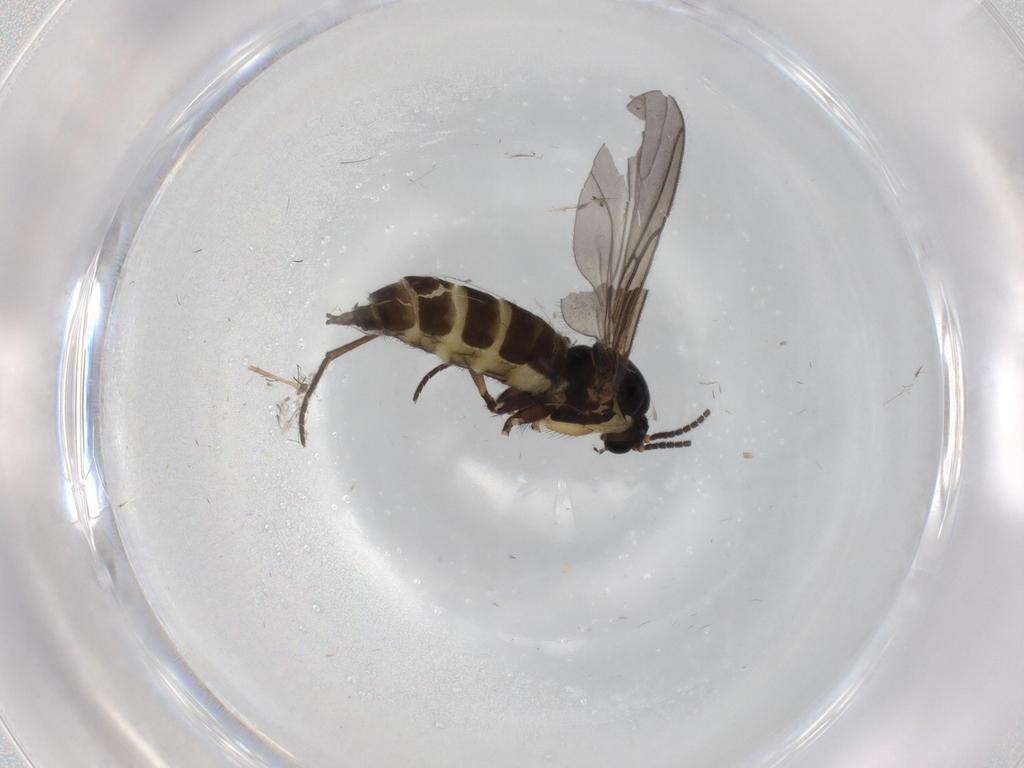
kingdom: Animalia
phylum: Arthropoda
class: Insecta
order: Diptera
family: Sciaridae
